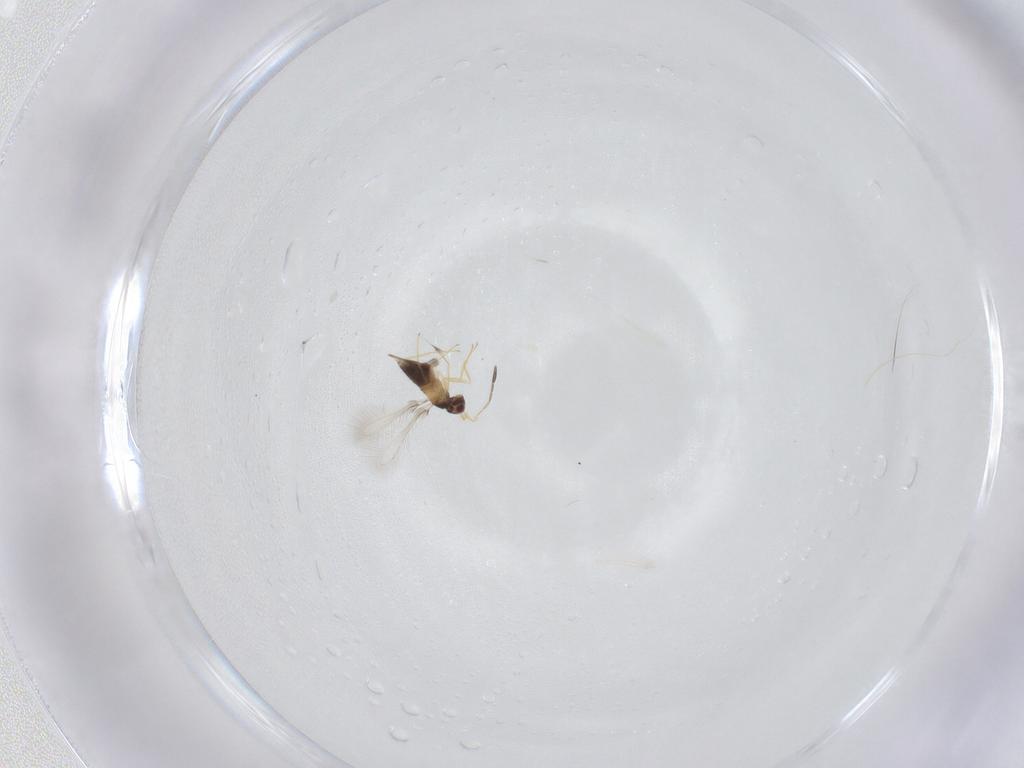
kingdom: Animalia
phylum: Arthropoda
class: Insecta
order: Hymenoptera
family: Mymaridae
